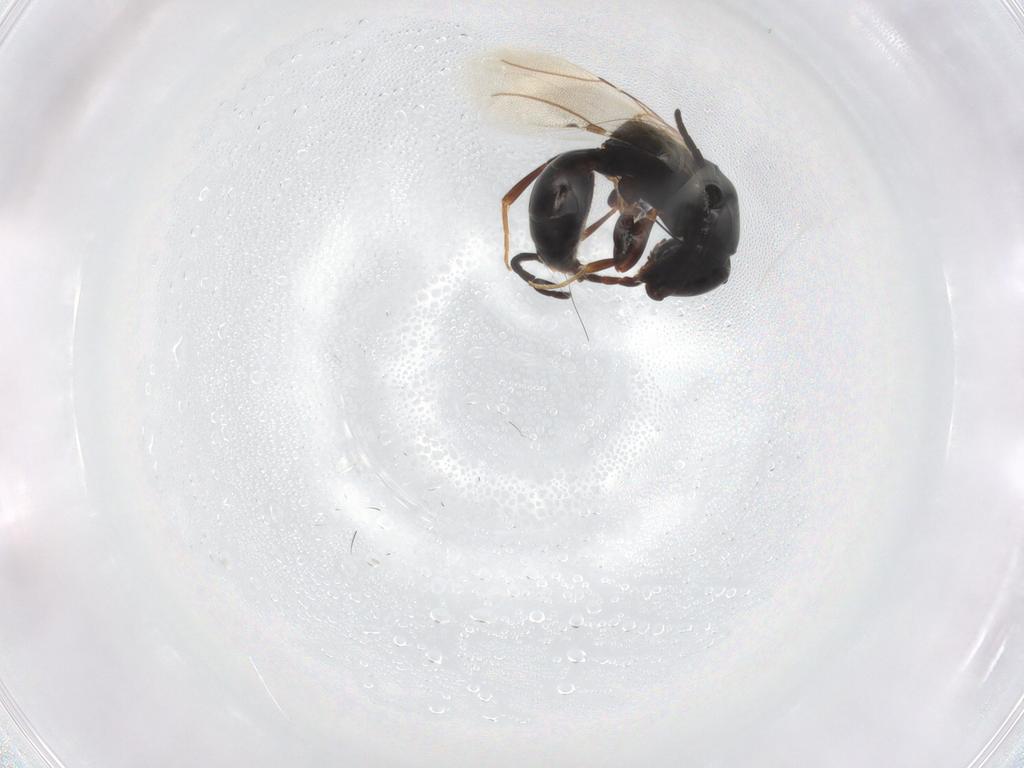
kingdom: Animalia
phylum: Arthropoda
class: Insecta
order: Hymenoptera
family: Bethylidae
